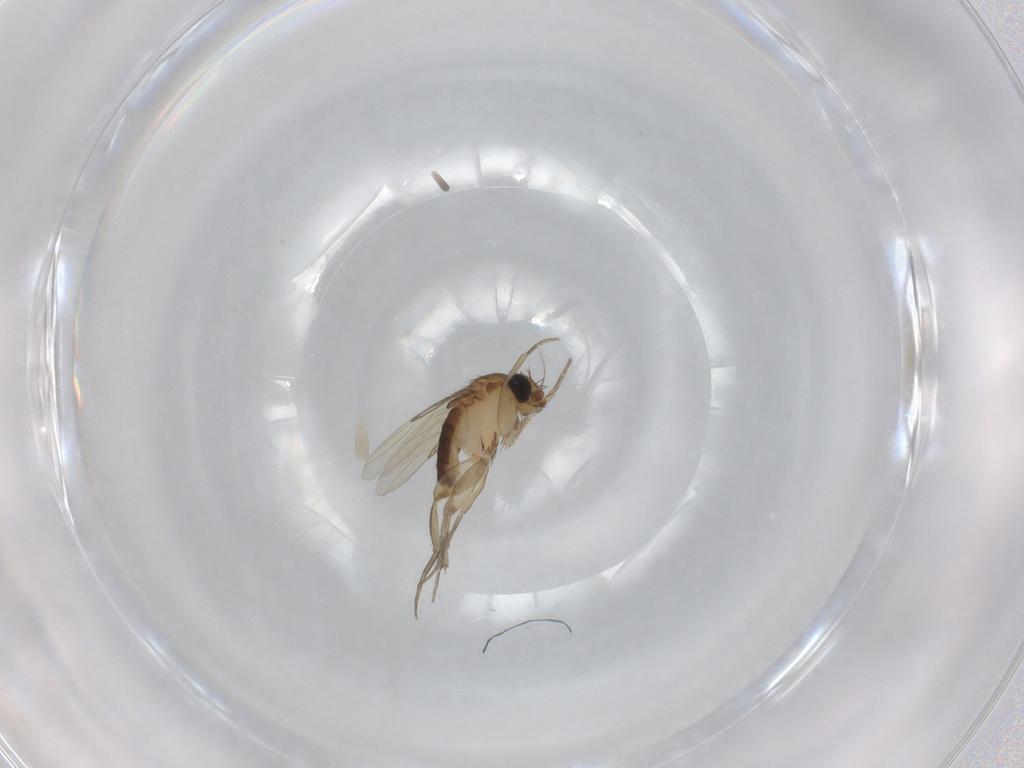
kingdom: Animalia
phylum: Arthropoda
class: Insecta
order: Diptera
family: Phoridae
